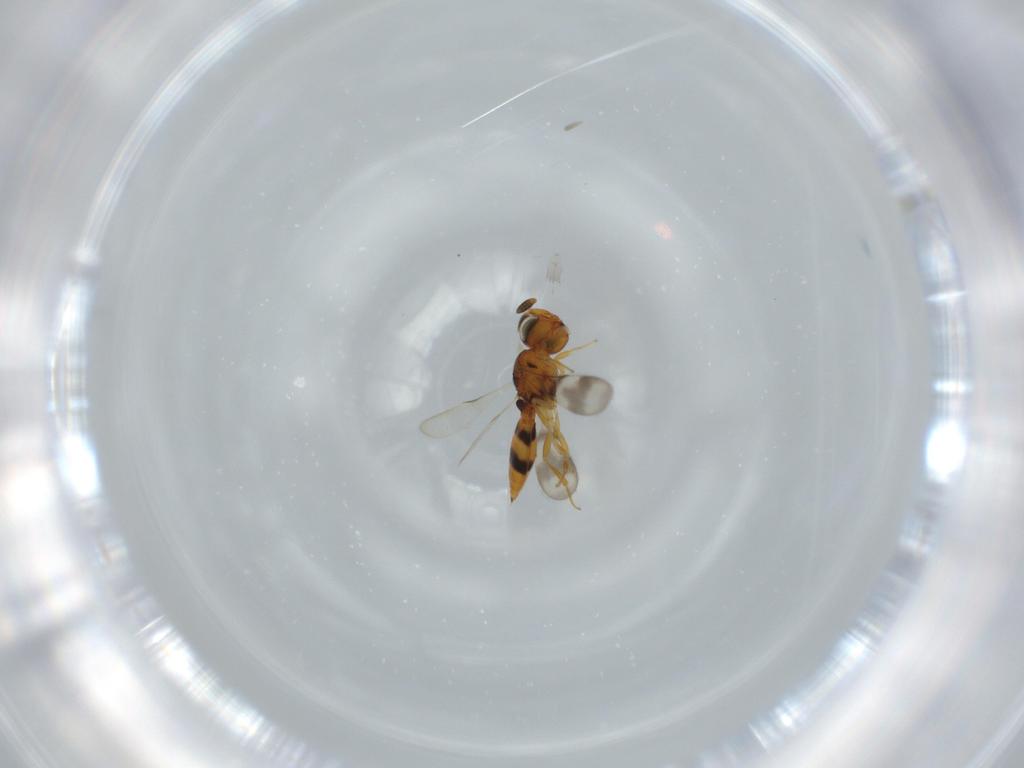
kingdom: Animalia
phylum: Arthropoda
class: Insecta
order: Hymenoptera
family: Scelionidae
